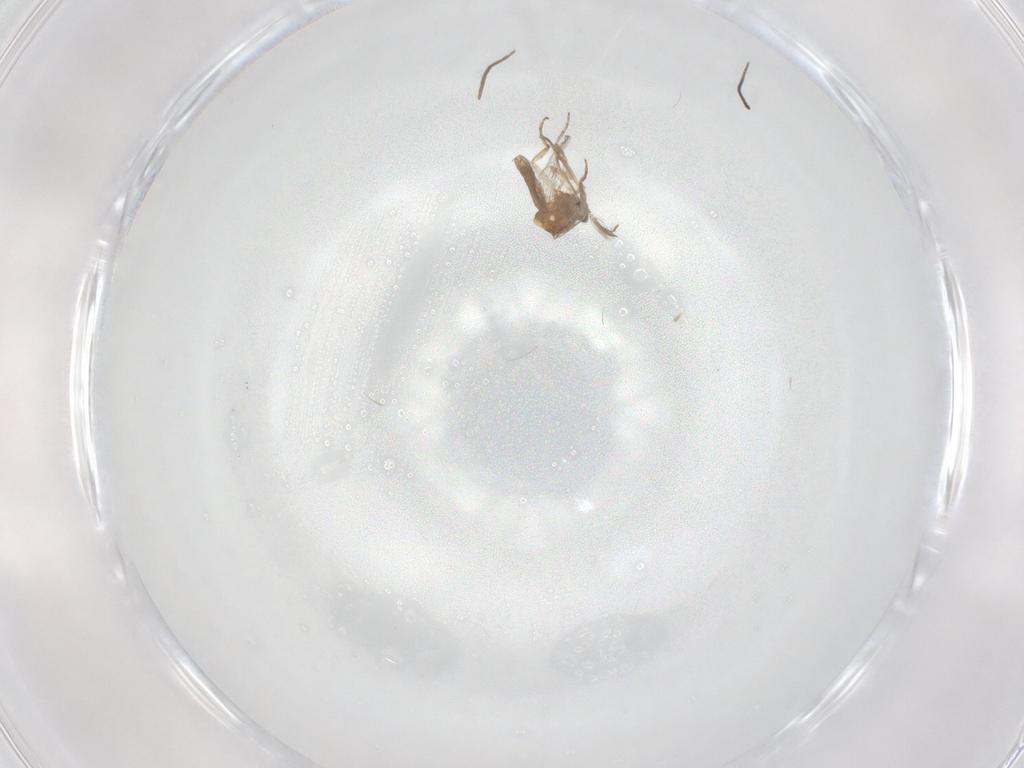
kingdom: Animalia
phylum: Arthropoda
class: Insecta
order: Diptera
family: Sciaridae
